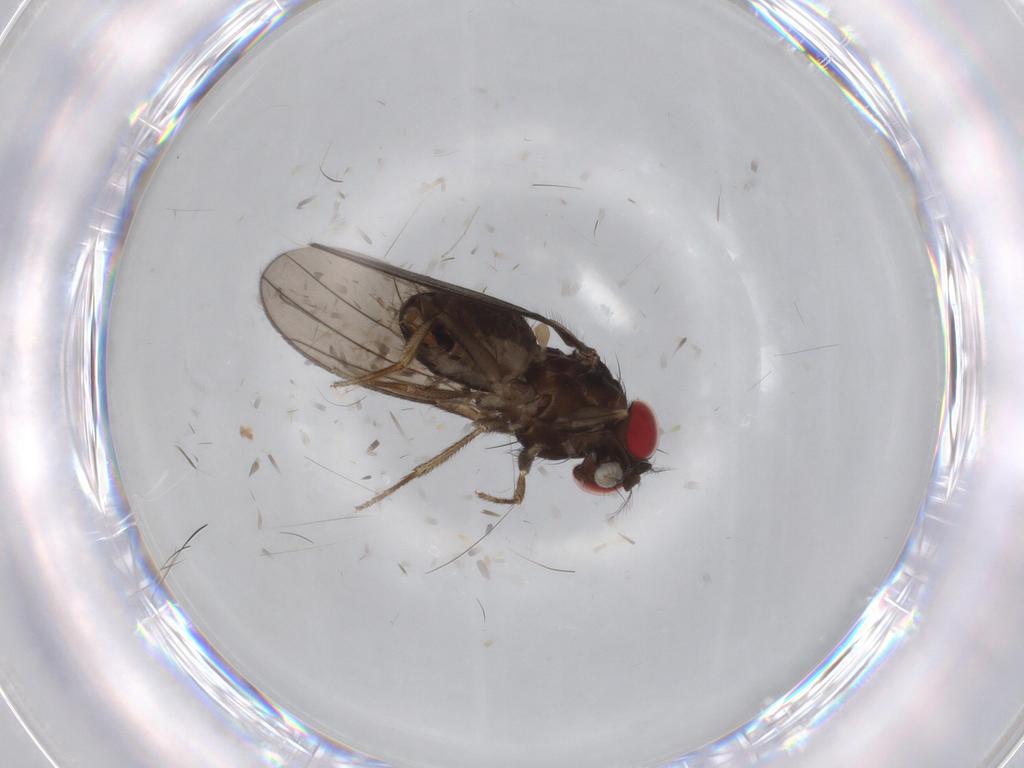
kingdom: Animalia
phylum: Arthropoda
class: Insecta
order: Diptera
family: Drosophilidae
